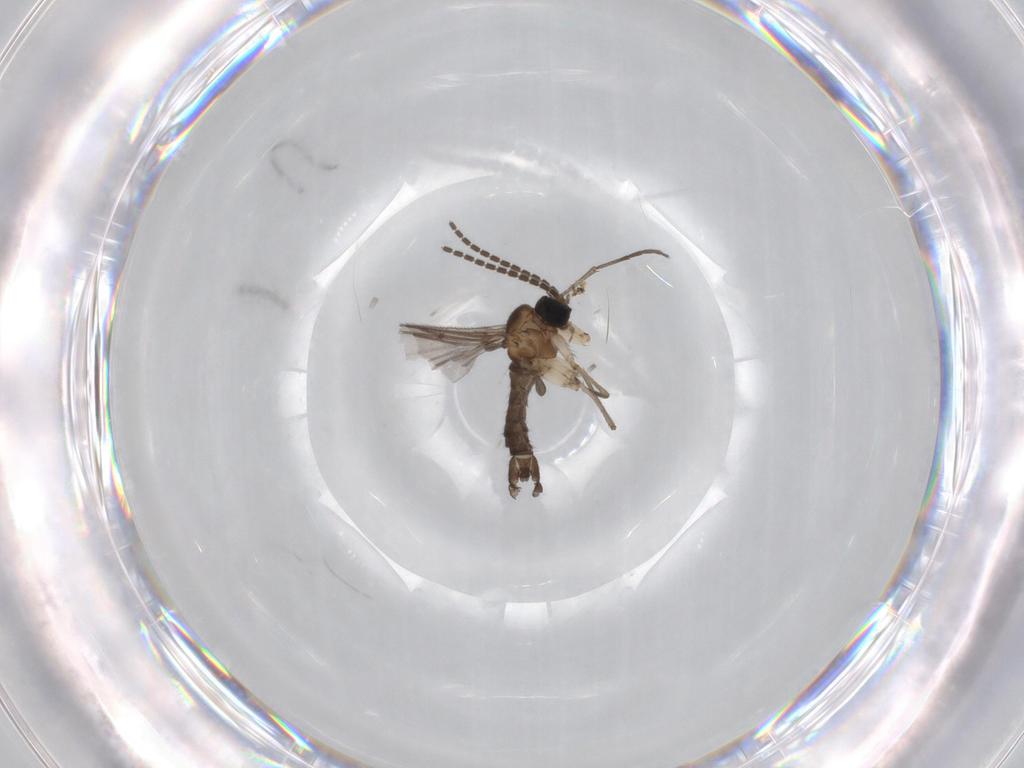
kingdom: Animalia
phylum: Arthropoda
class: Insecta
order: Diptera
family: Sciaridae
